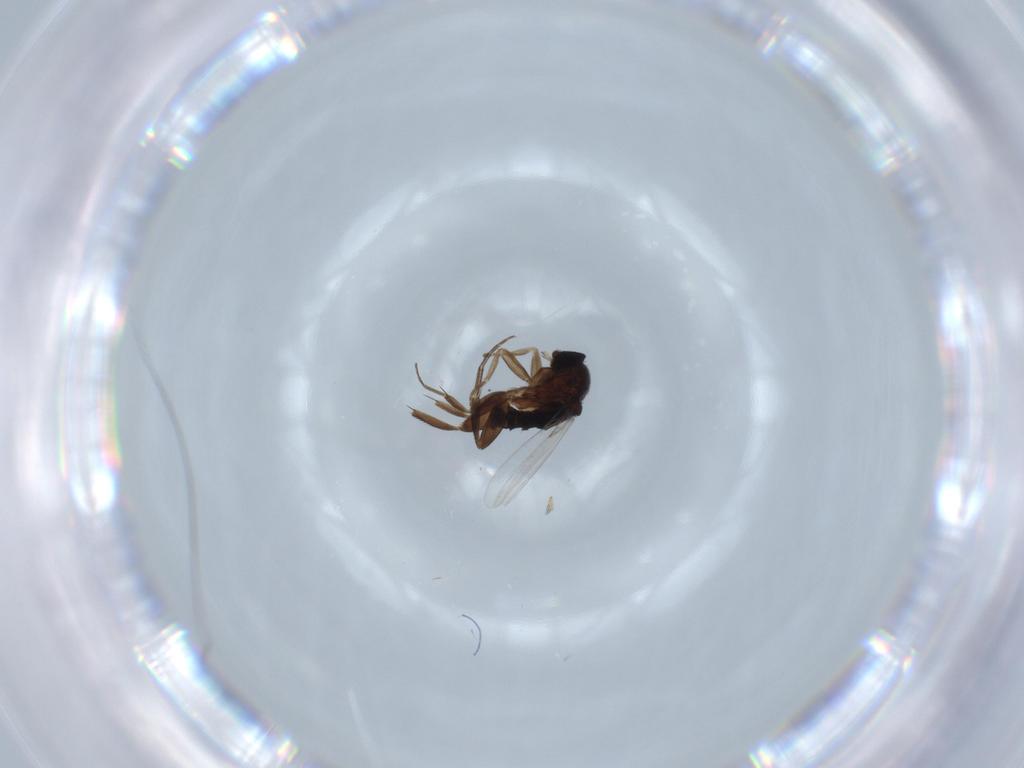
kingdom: Animalia
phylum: Arthropoda
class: Insecta
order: Diptera
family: Phoridae
